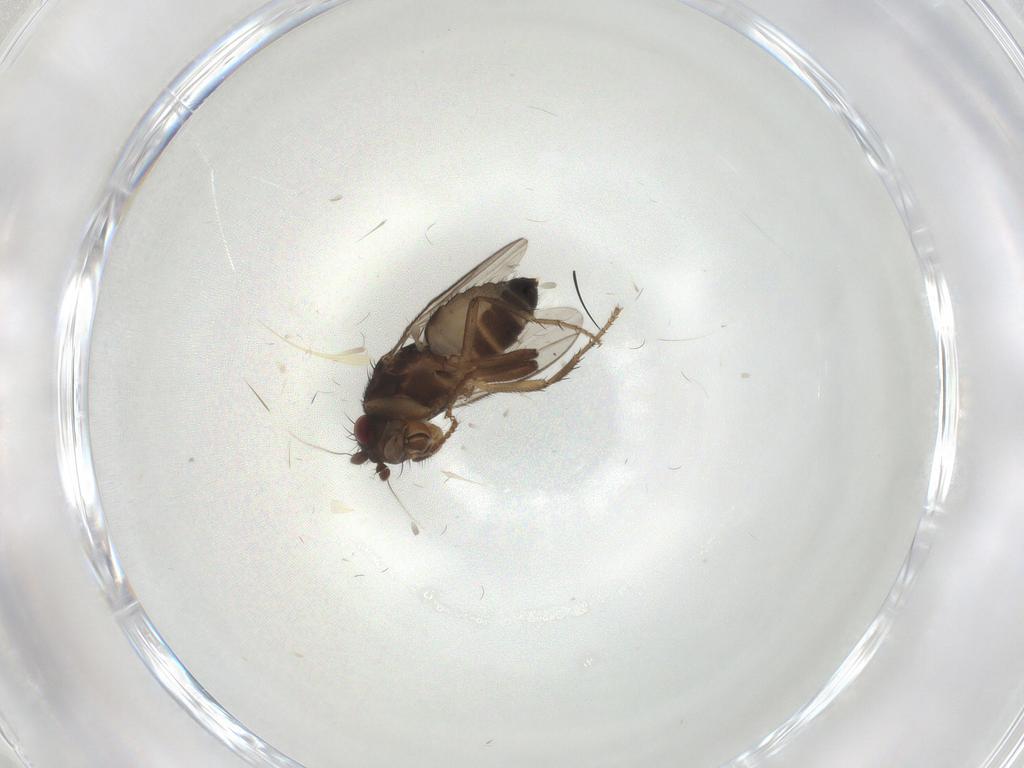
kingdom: Animalia
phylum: Arthropoda
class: Insecta
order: Diptera
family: Sphaeroceridae
